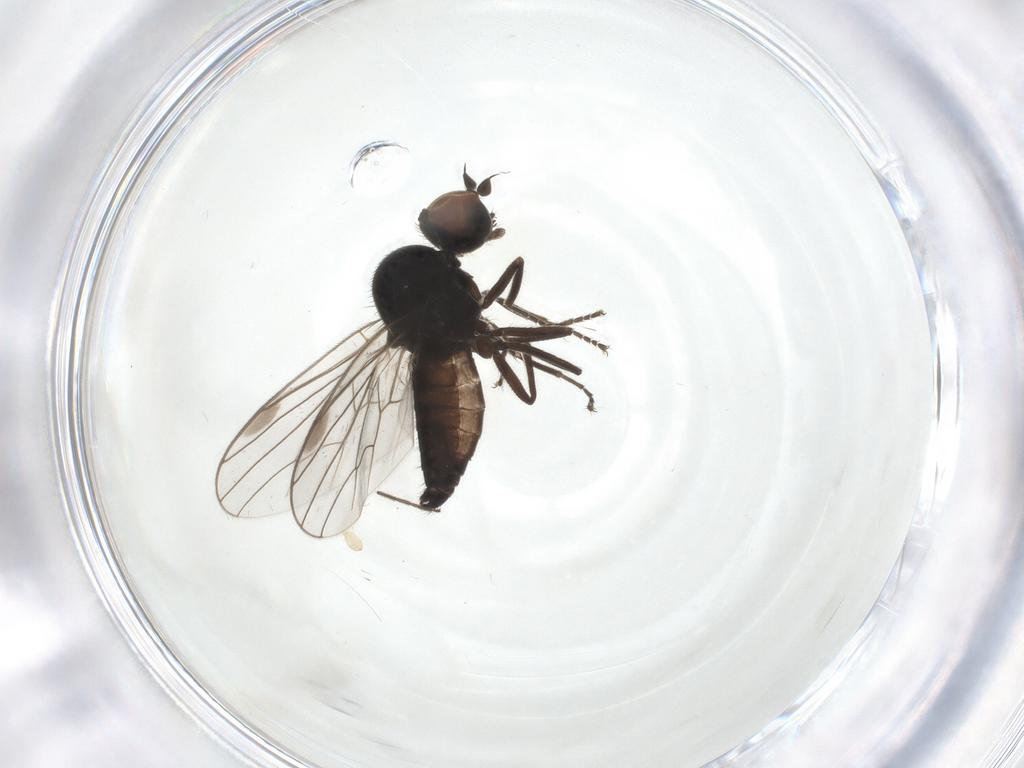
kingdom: Animalia
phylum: Arthropoda
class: Insecta
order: Diptera
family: Hybotidae
